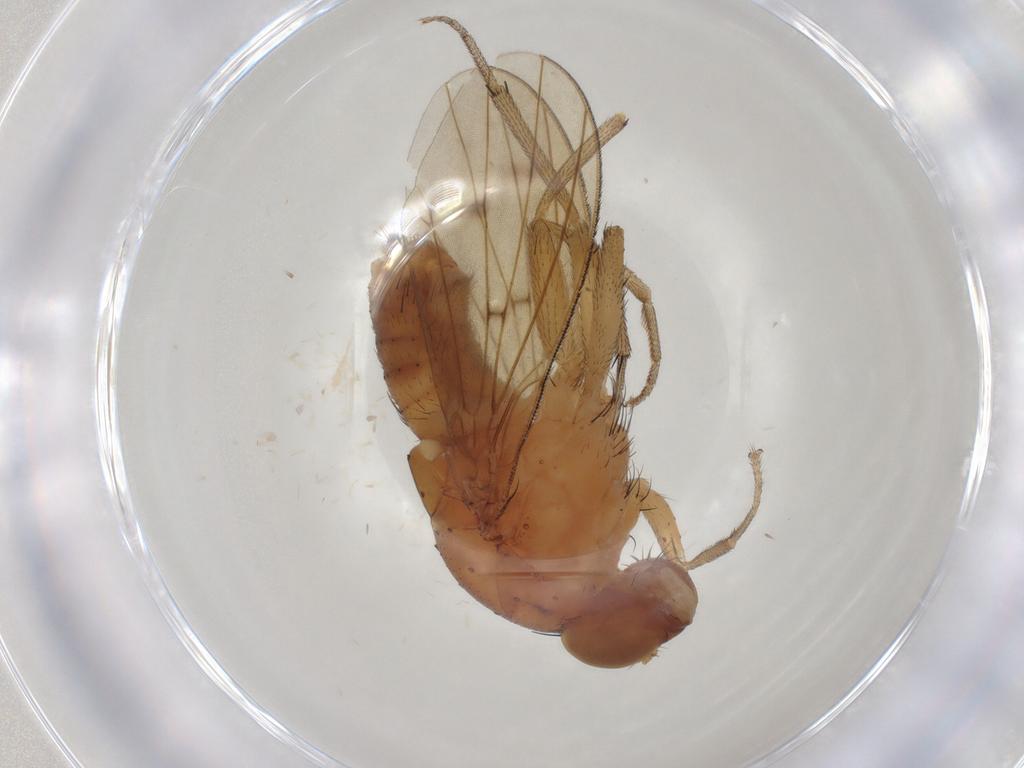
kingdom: Animalia
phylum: Arthropoda
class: Insecta
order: Diptera
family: Keroplatidae
